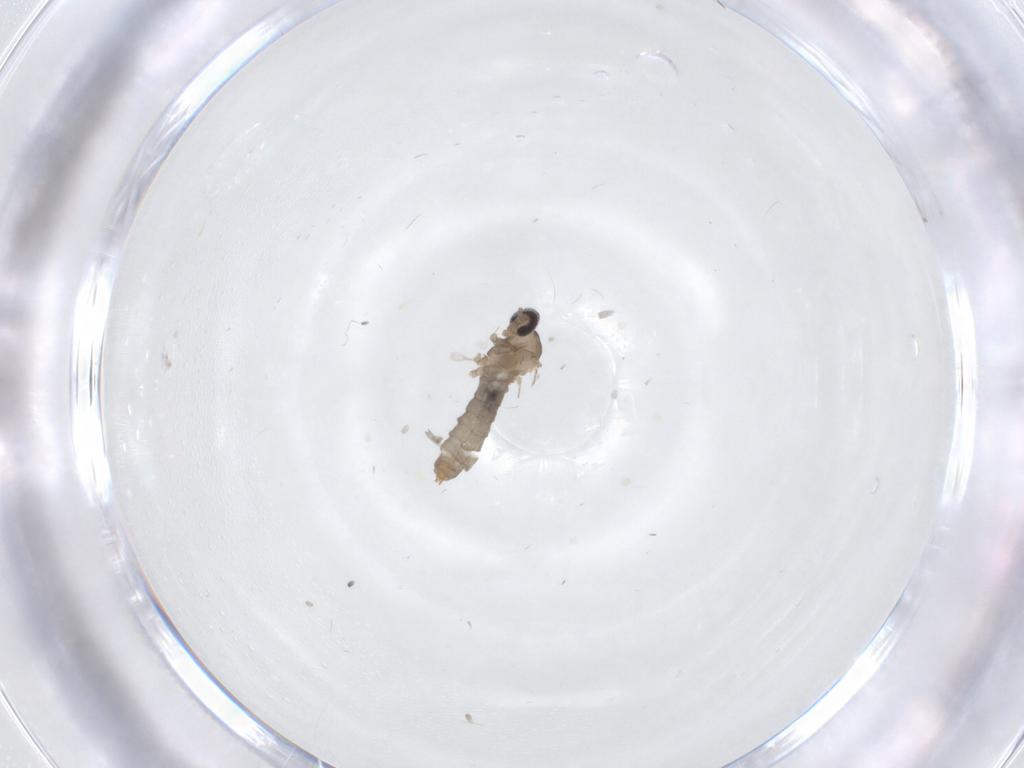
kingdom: Animalia
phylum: Arthropoda
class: Insecta
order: Diptera
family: Cecidomyiidae
